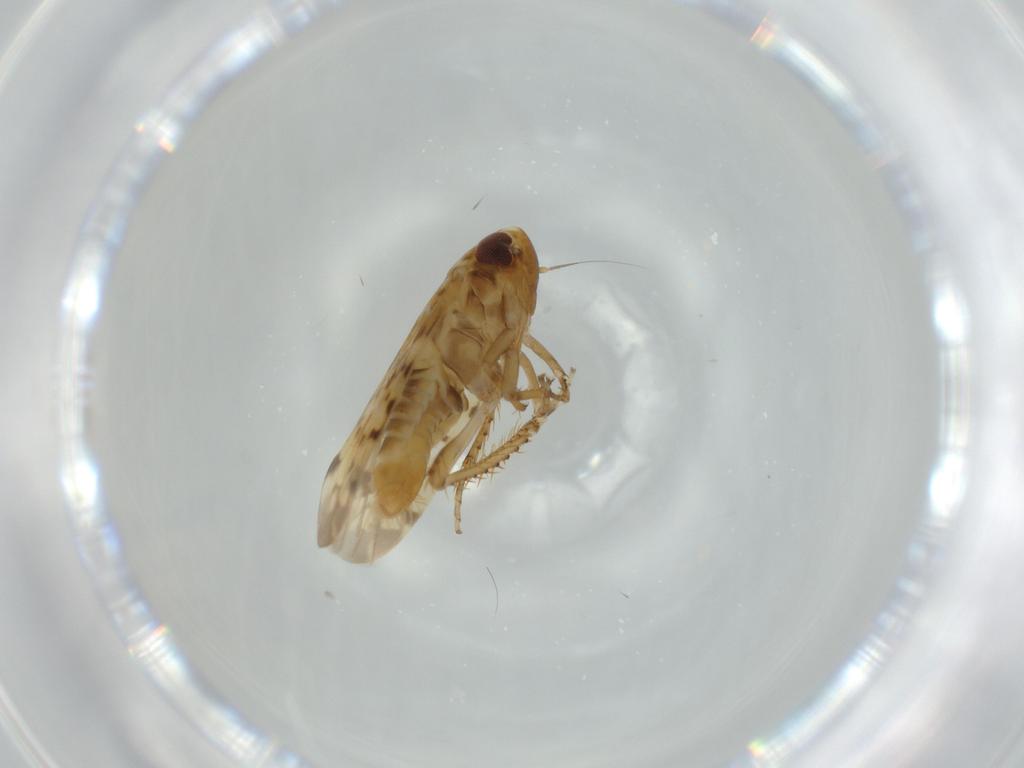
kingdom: Animalia
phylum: Arthropoda
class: Insecta
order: Hemiptera
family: Cicadellidae
